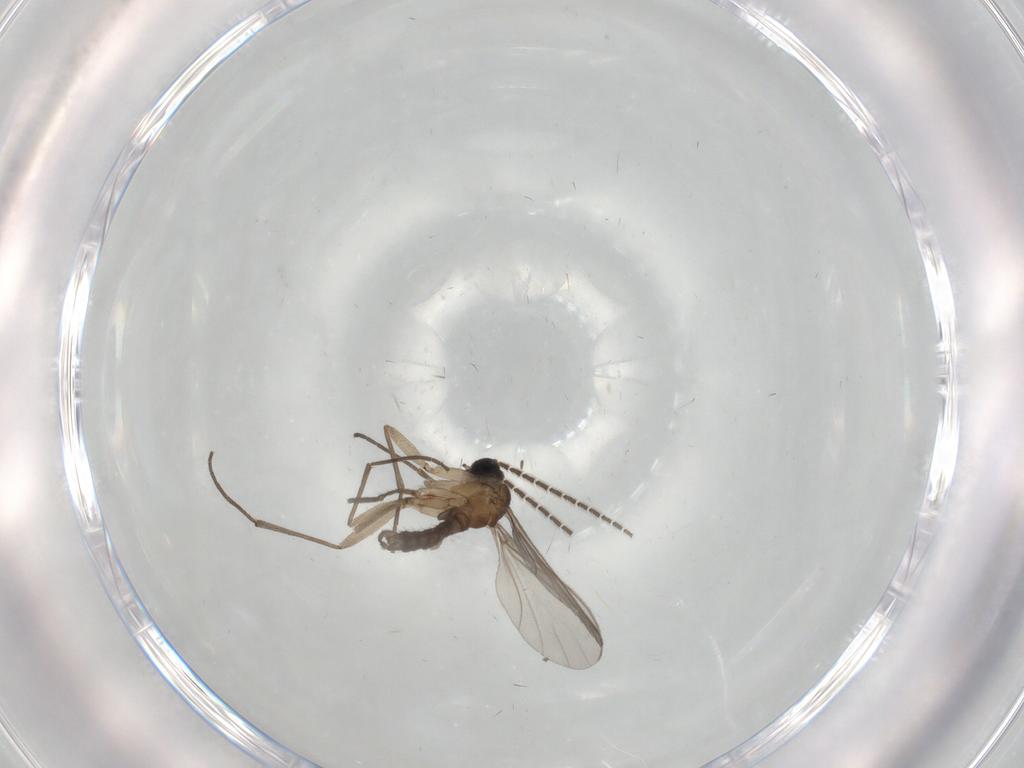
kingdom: Animalia
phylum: Arthropoda
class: Insecta
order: Diptera
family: Sciaridae
